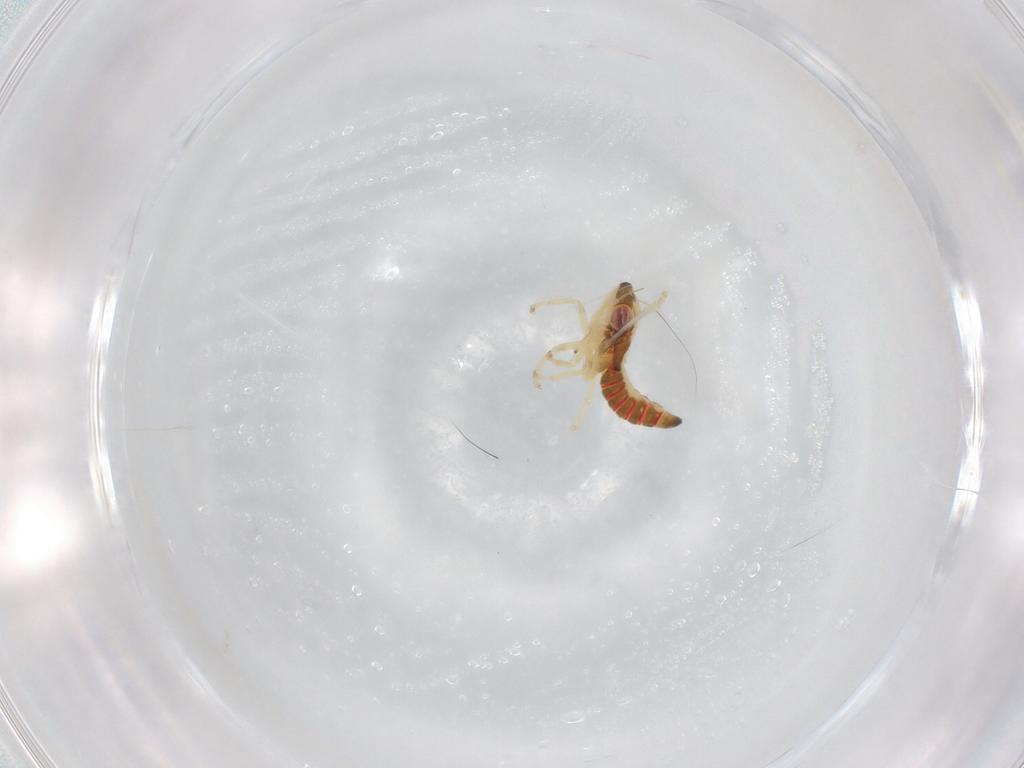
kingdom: Animalia
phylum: Arthropoda
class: Insecta
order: Hemiptera
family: Cicadellidae
